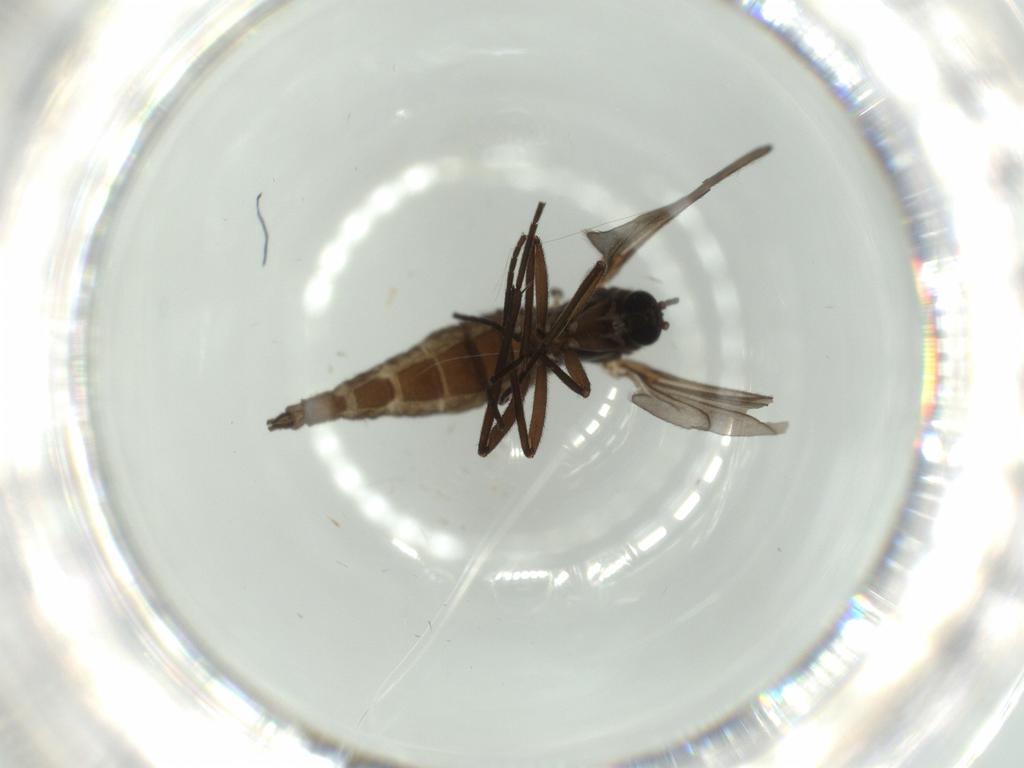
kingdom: Animalia
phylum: Arthropoda
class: Insecta
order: Diptera
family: Sciaridae
